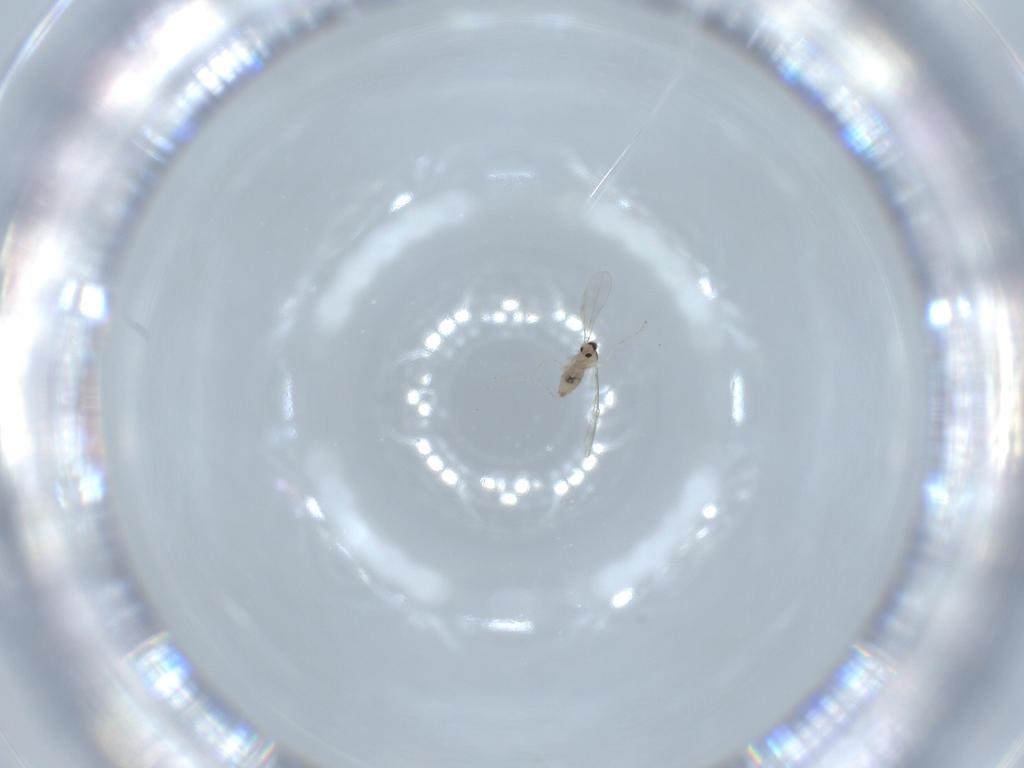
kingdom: Animalia
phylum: Arthropoda
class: Insecta
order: Diptera
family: Cecidomyiidae
